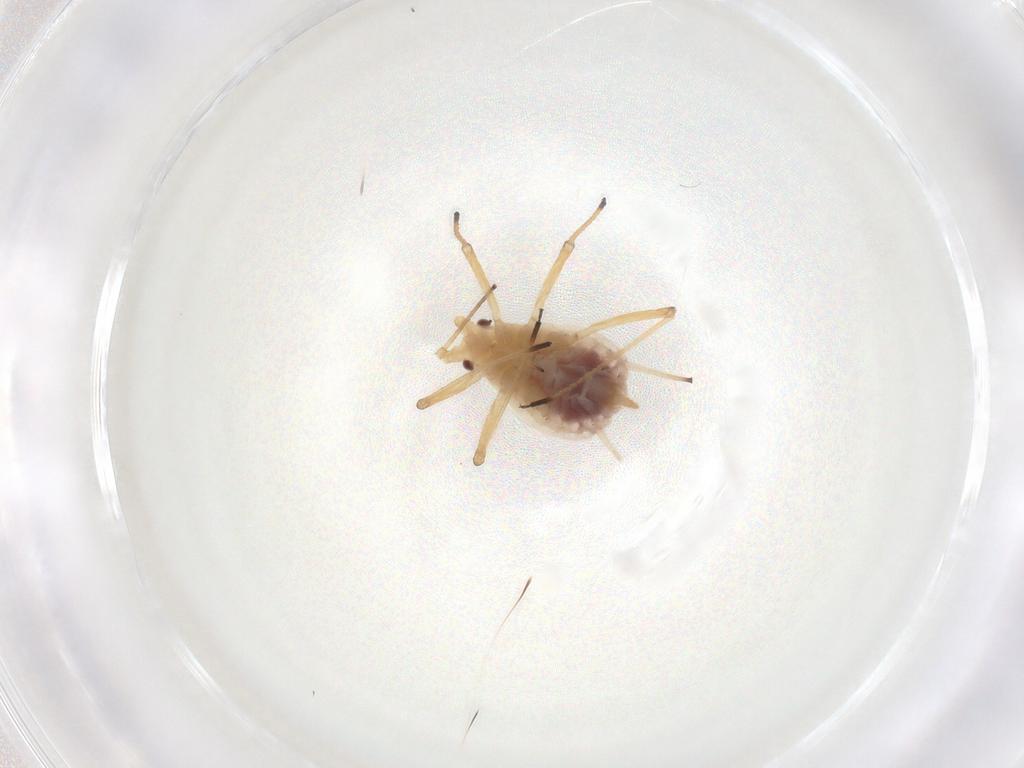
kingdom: Animalia
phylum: Arthropoda
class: Insecta
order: Hemiptera
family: Aphididae
